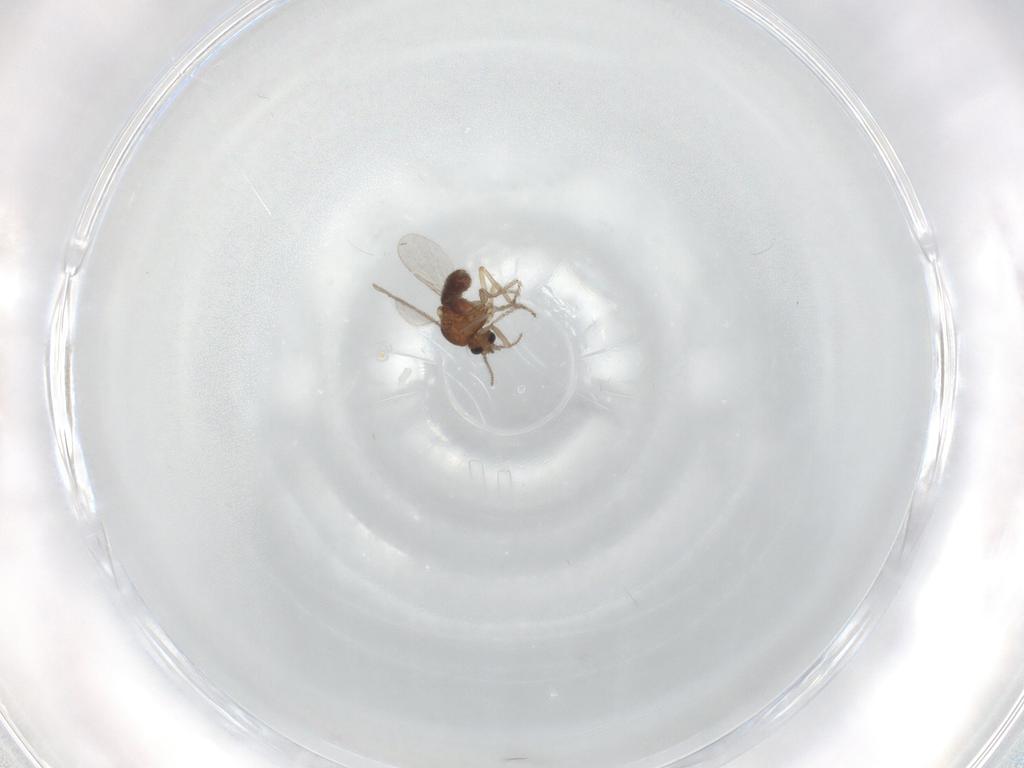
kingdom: Animalia
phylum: Arthropoda
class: Insecta
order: Diptera
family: Ceratopogonidae
